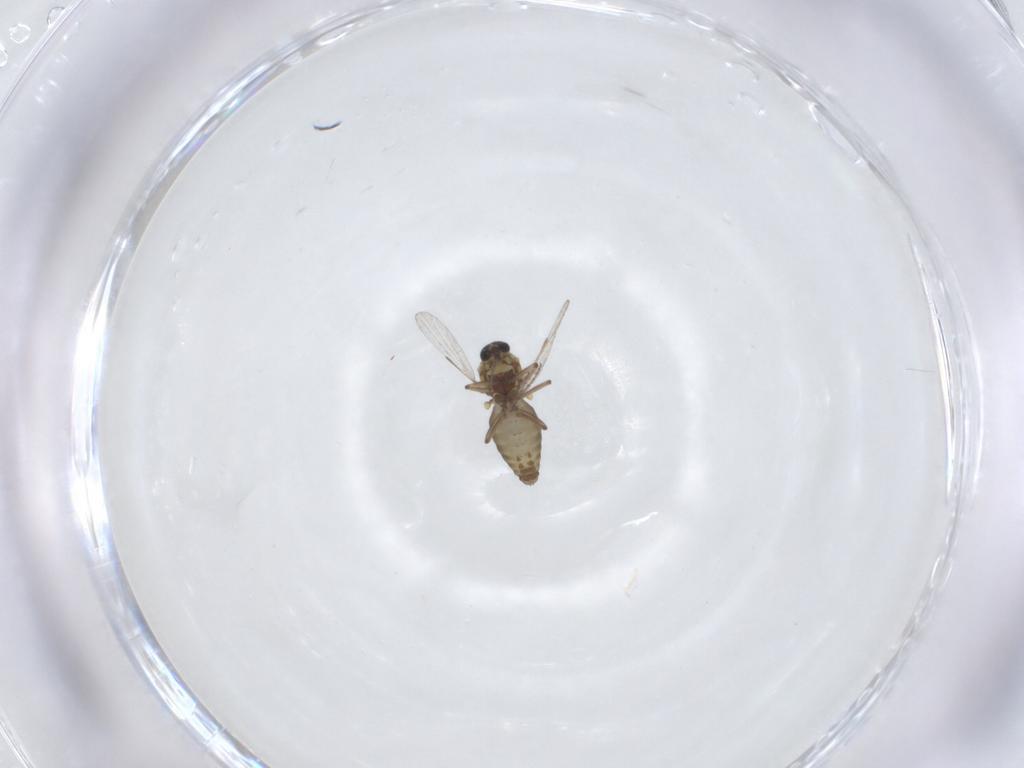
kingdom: Animalia
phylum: Arthropoda
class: Insecta
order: Diptera
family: Ceratopogonidae
